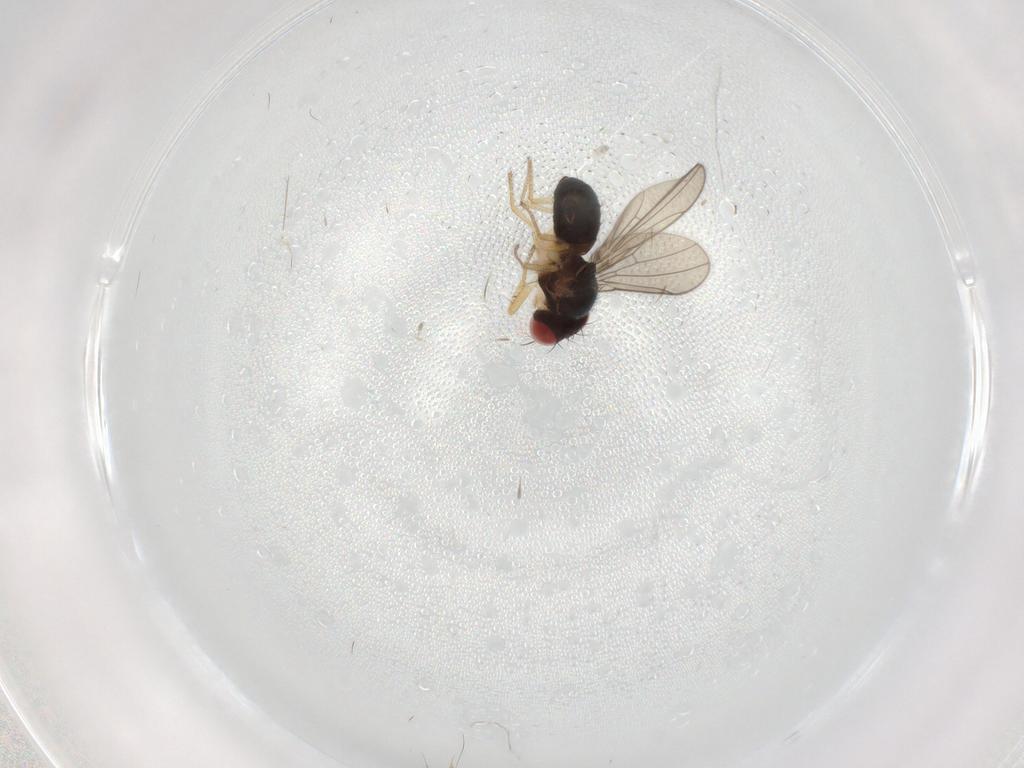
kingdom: Animalia
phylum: Arthropoda
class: Insecta
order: Diptera
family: Drosophilidae
